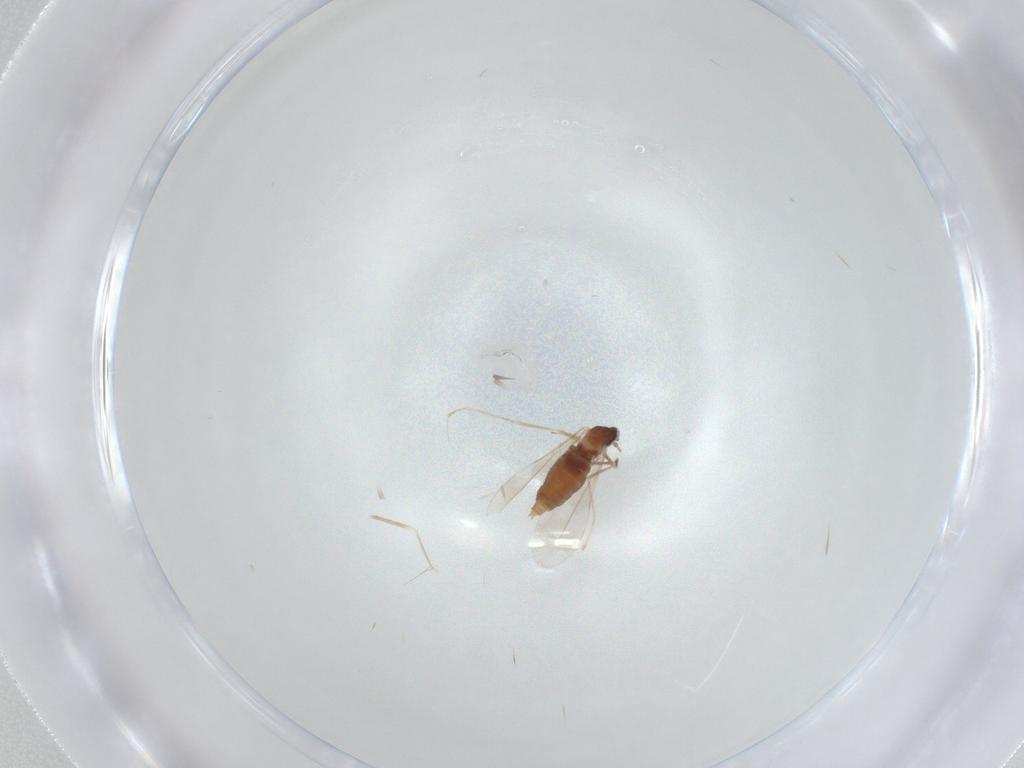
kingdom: Animalia
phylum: Arthropoda
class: Insecta
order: Diptera
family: Cecidomyiidae
